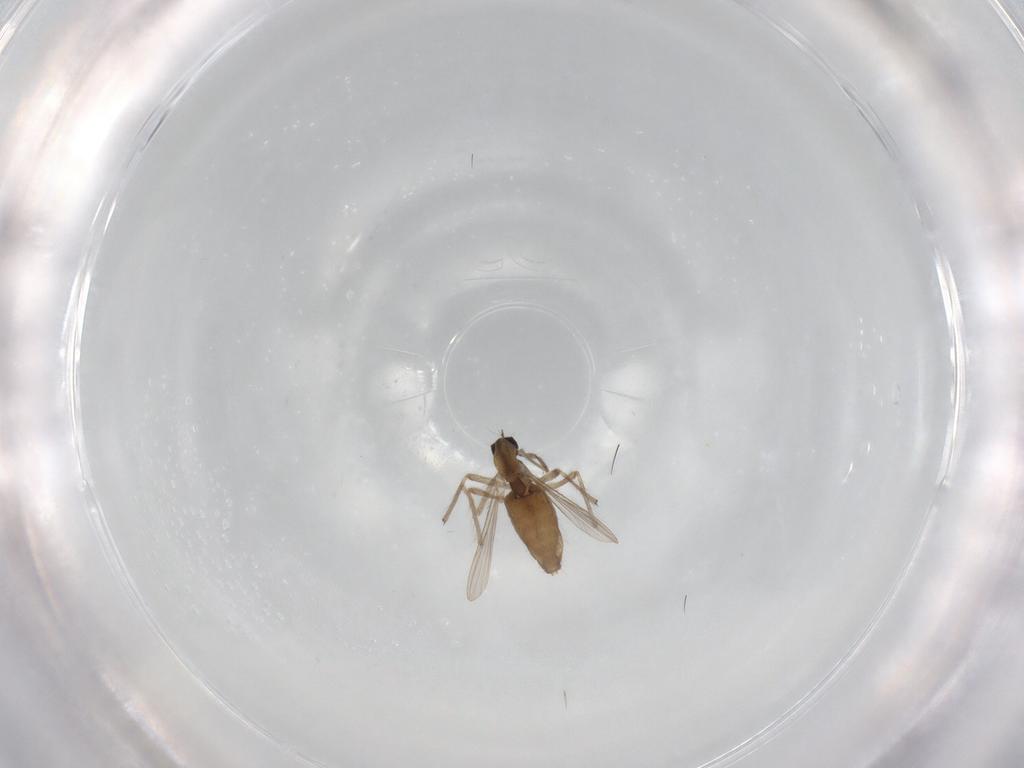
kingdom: Animalia
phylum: Arthropoda
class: Insecta
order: Diptera
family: Chironomidae
